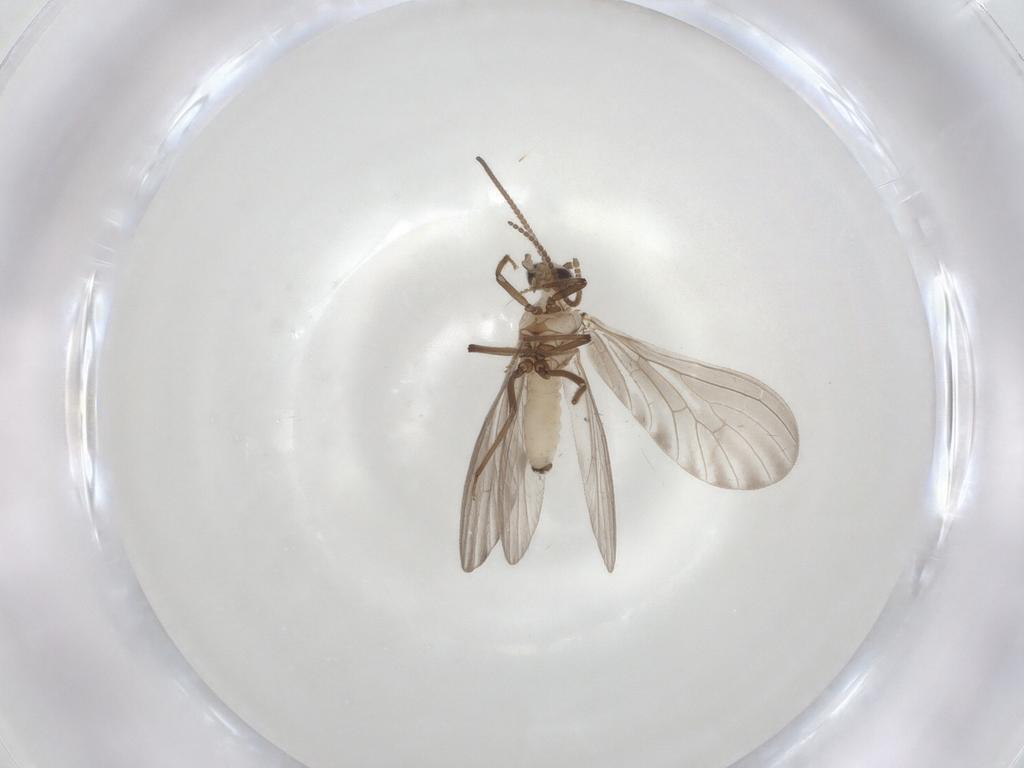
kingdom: Animalia
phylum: Arthropoda
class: Insecta
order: Neuroptera
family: Coniopterygidae
